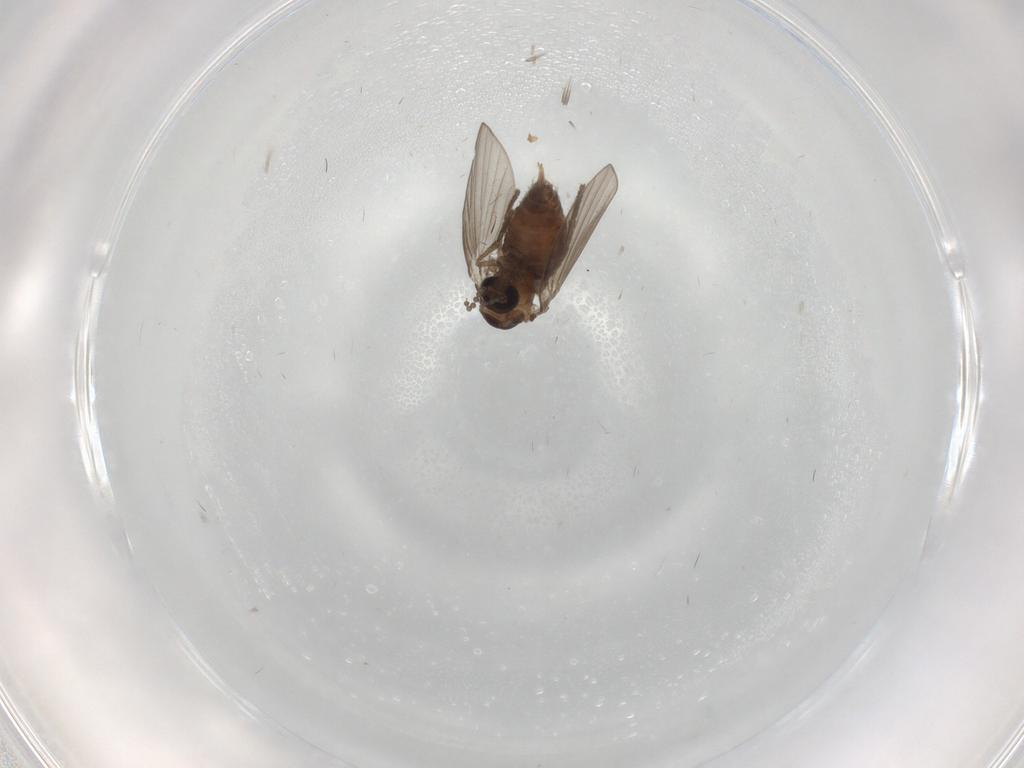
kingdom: Animalia
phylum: Arthropoda
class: Insecta
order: Diptera
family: Psychodidae
